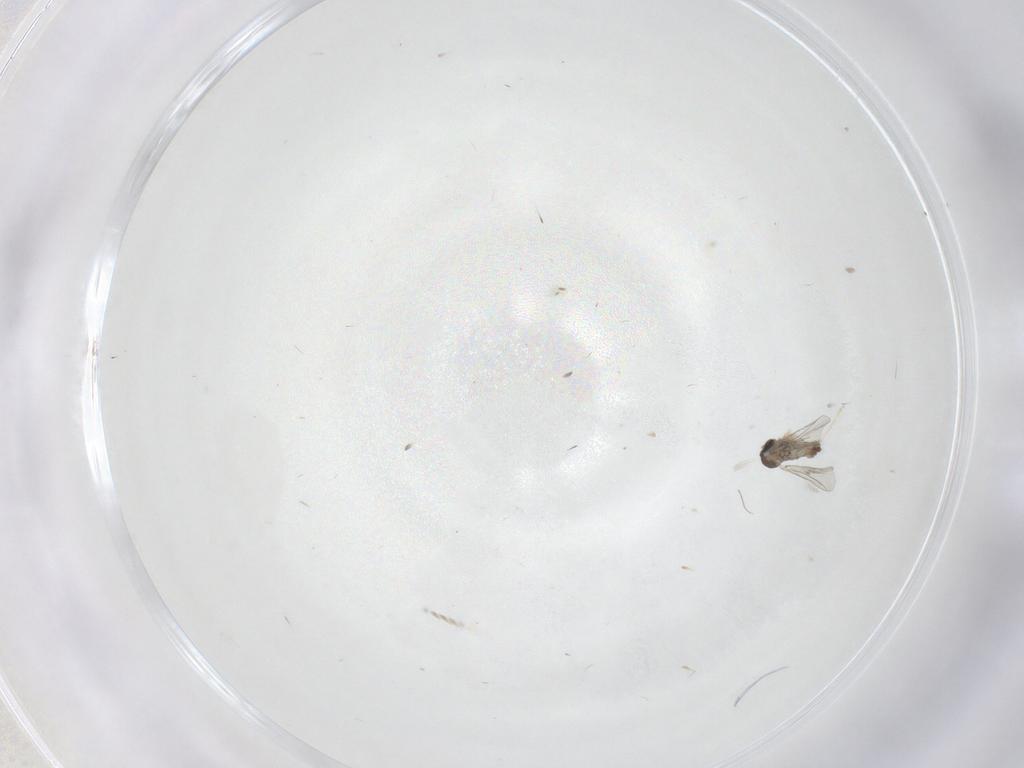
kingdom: Animalia
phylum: Arthropoda
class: Insecta
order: Diptera
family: Cecidomyiidae
